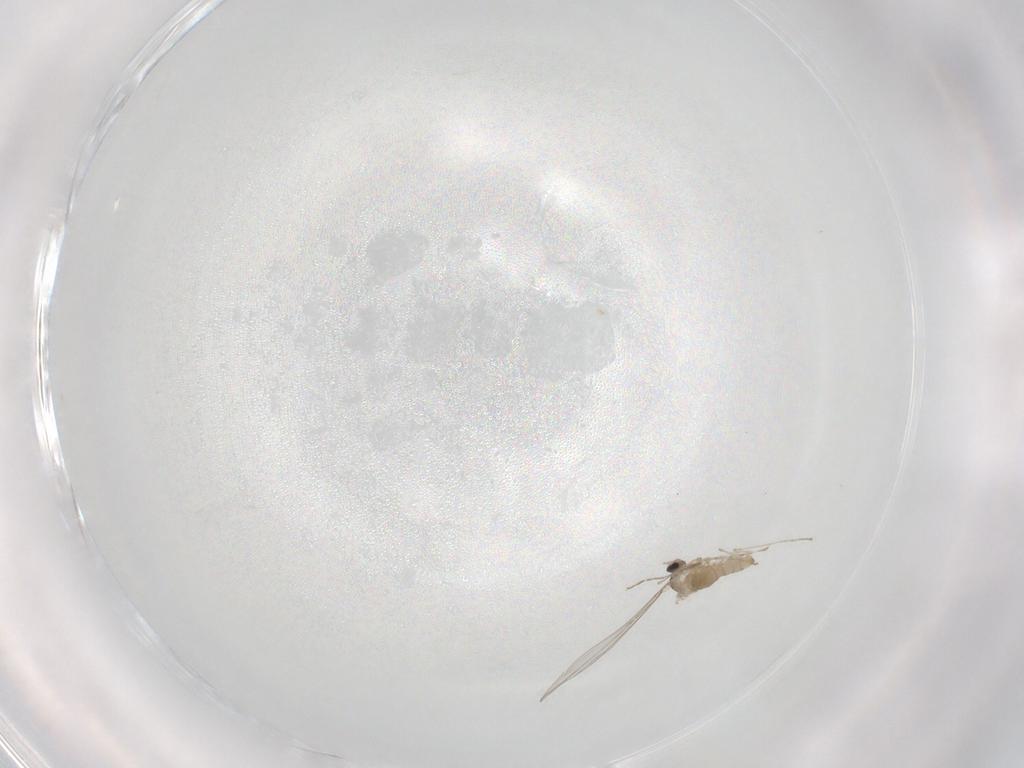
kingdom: Animalia
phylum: Arthropoda
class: Insecta
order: Diptera
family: Cecidomyiidae
